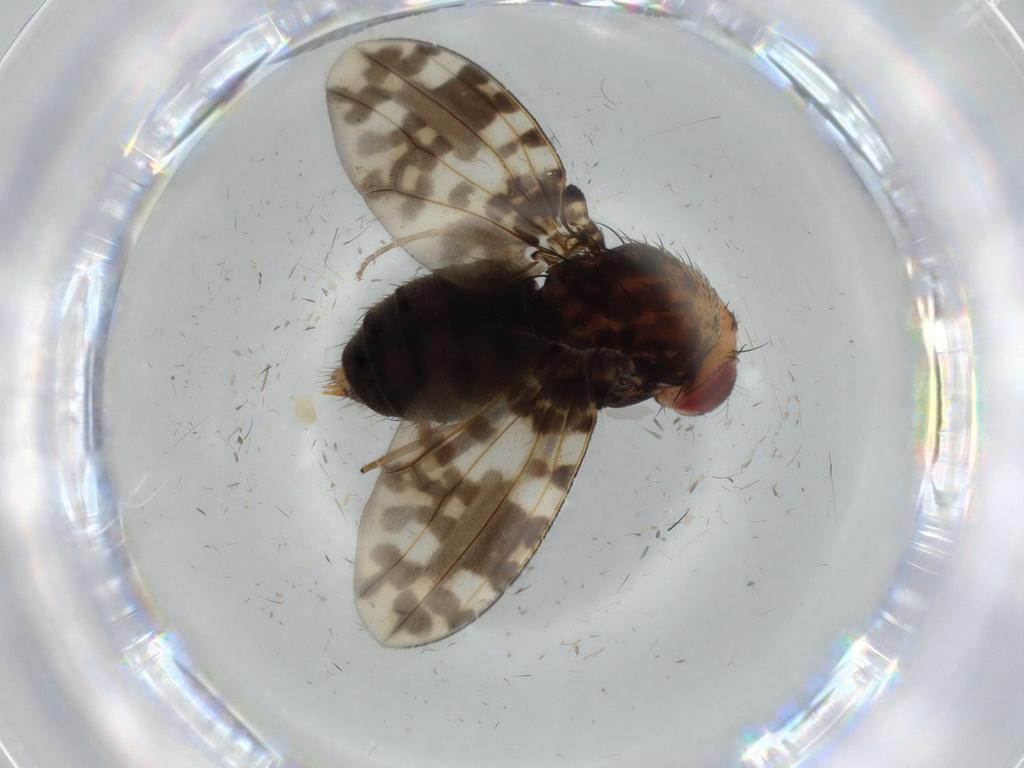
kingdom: Animalia
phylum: Arthropoda
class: Insecta
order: Diptera
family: Drosophilidae
